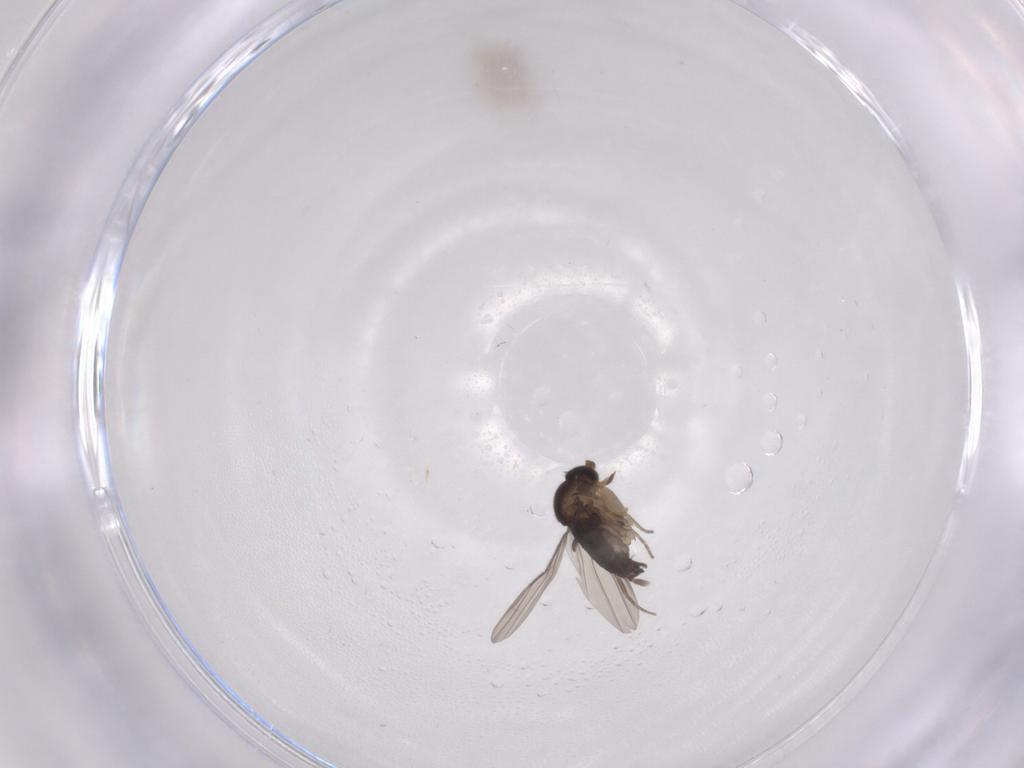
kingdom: Animalia
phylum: Arthropoda
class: Insecta
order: Diptera
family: Phoridae
